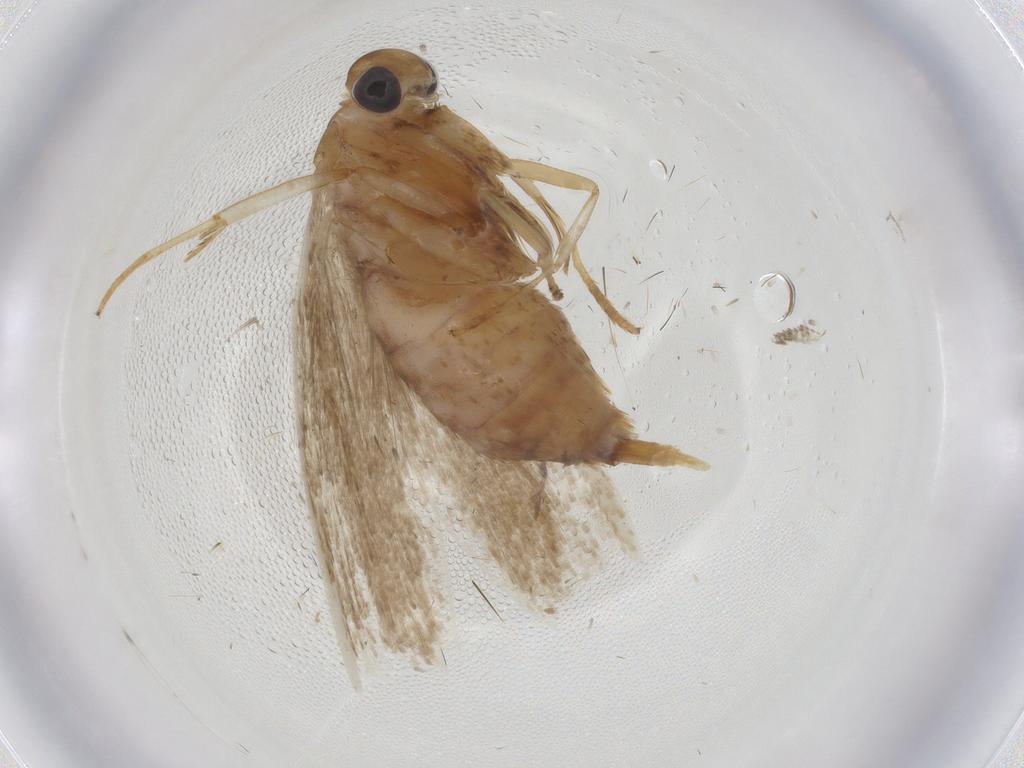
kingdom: Animalia
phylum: Arthropoda
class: Insecta
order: Lepidoptera
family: Blastobasidae
